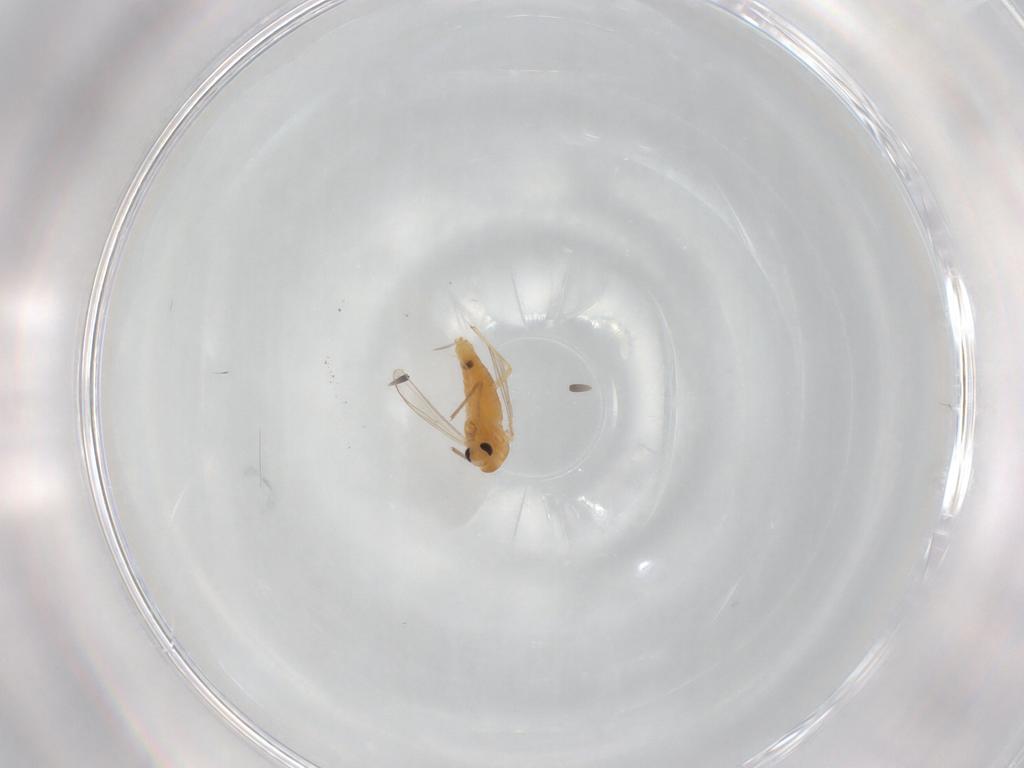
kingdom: Animalia
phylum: Arthropoda
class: Insecta
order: Diptera
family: Chironomidae
